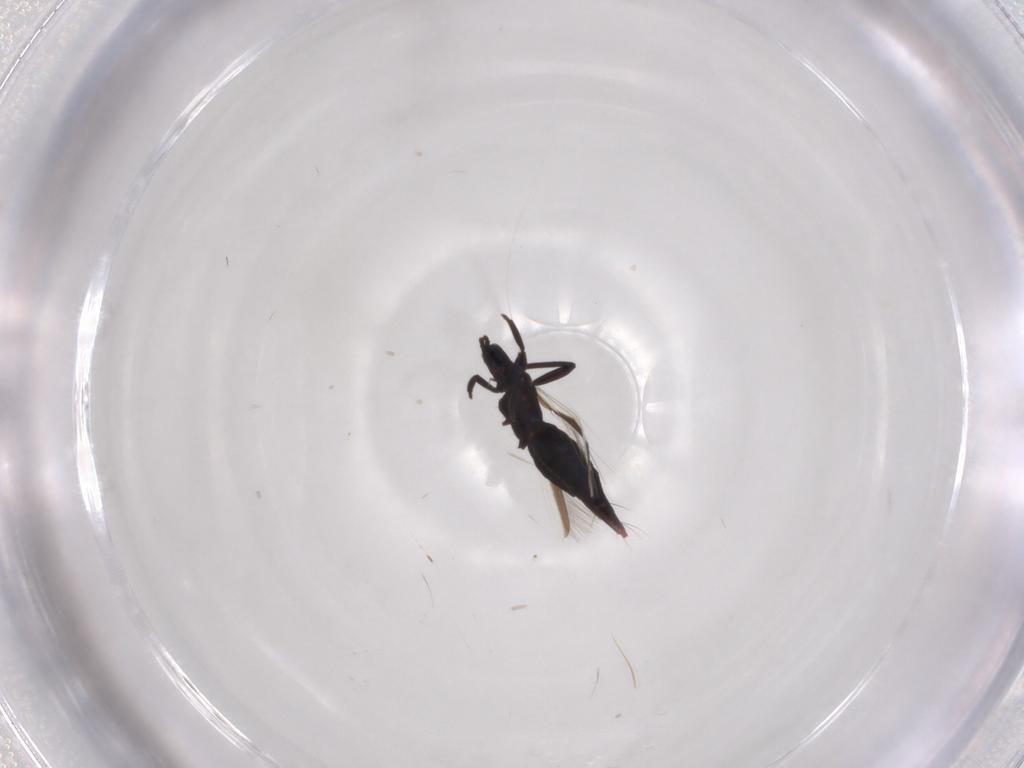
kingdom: Animalia
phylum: Arthropoda
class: Insecta
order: Thysanoptera
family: Aeolothripidae
